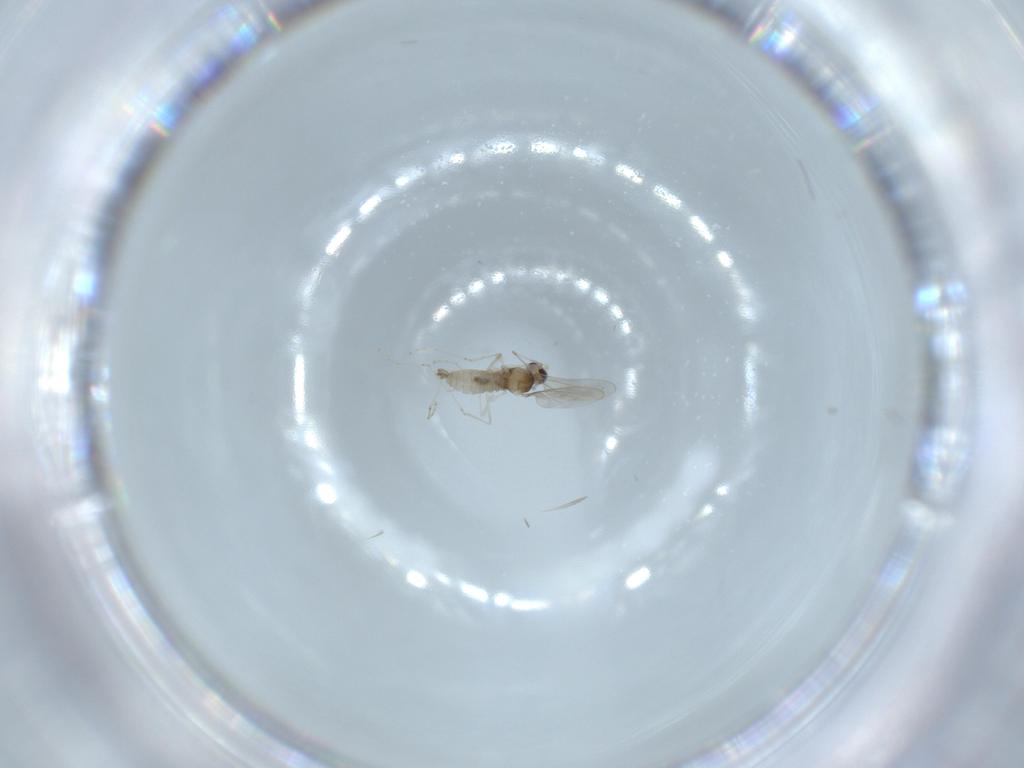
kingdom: Animalia
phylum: Arthropoda
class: Insecta
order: Diptera
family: Cecidomyiidae
